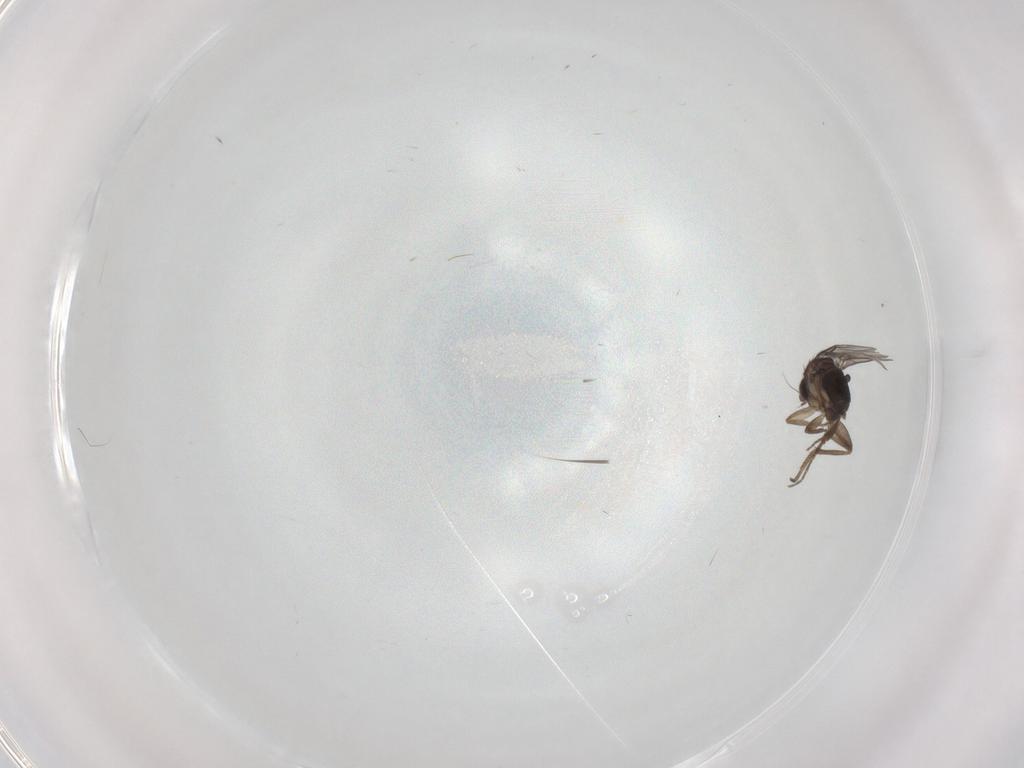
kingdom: Animalia
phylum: Arthropoda
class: Insecta
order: Diptera
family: Phoridae
